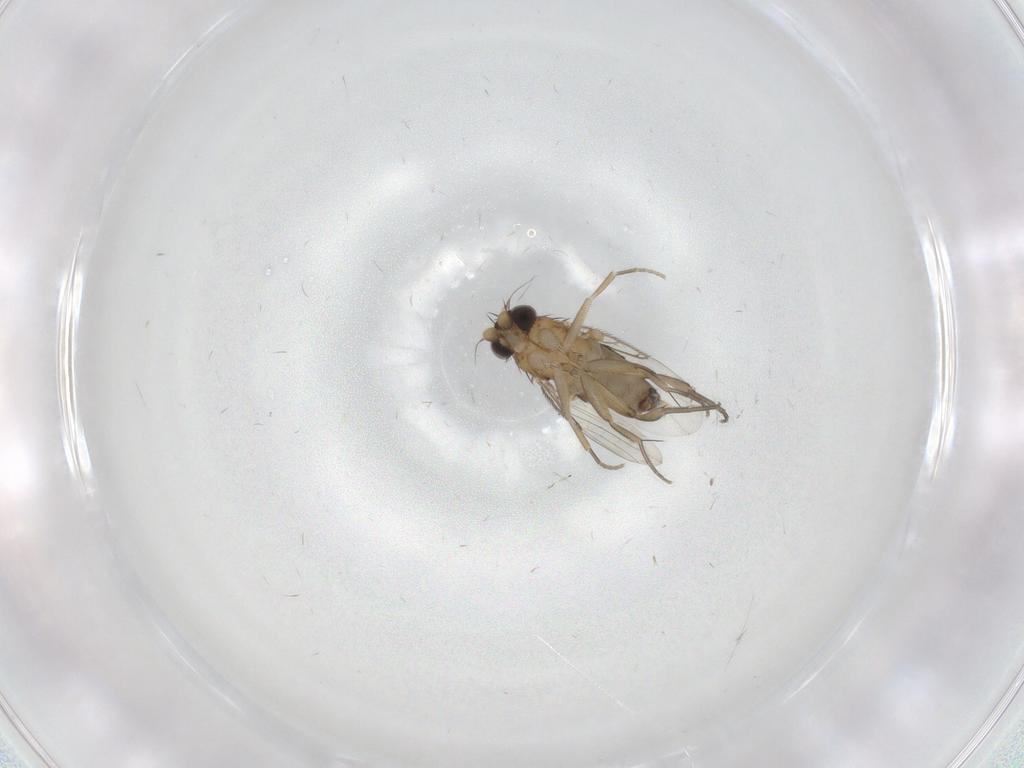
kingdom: Animalia
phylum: Arthropoda
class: Insecta
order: Diptera
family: Phoridae
